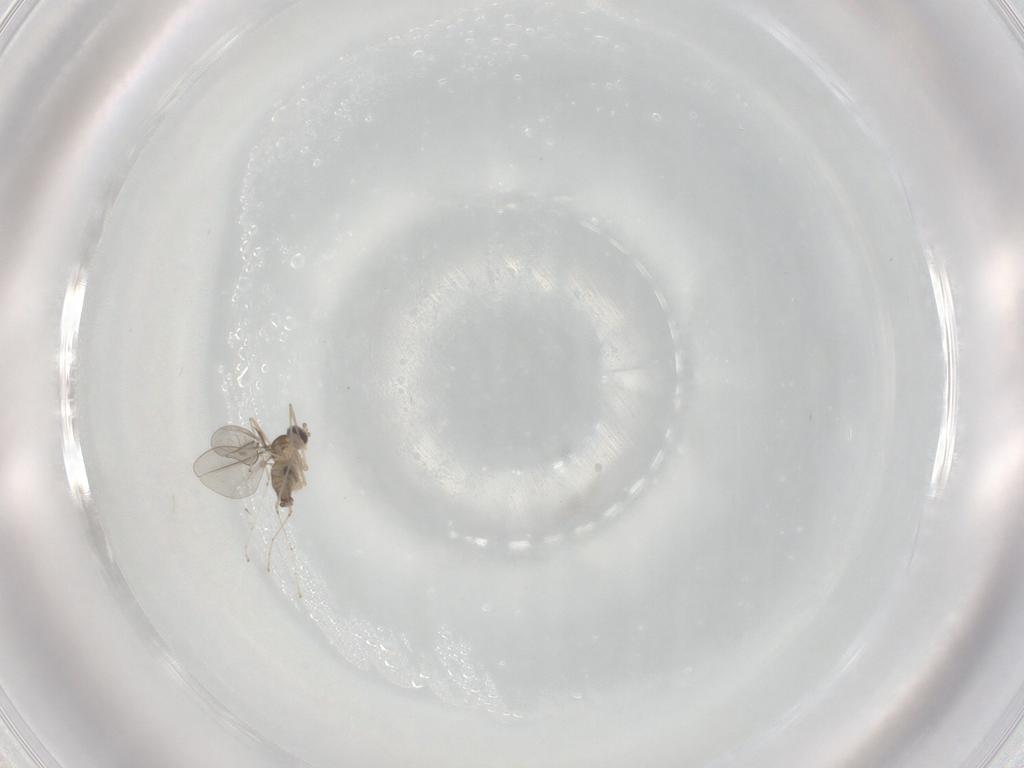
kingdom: Animalia
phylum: Arthropoda
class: Insecta
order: Diptera
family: Cecidomyiidae
